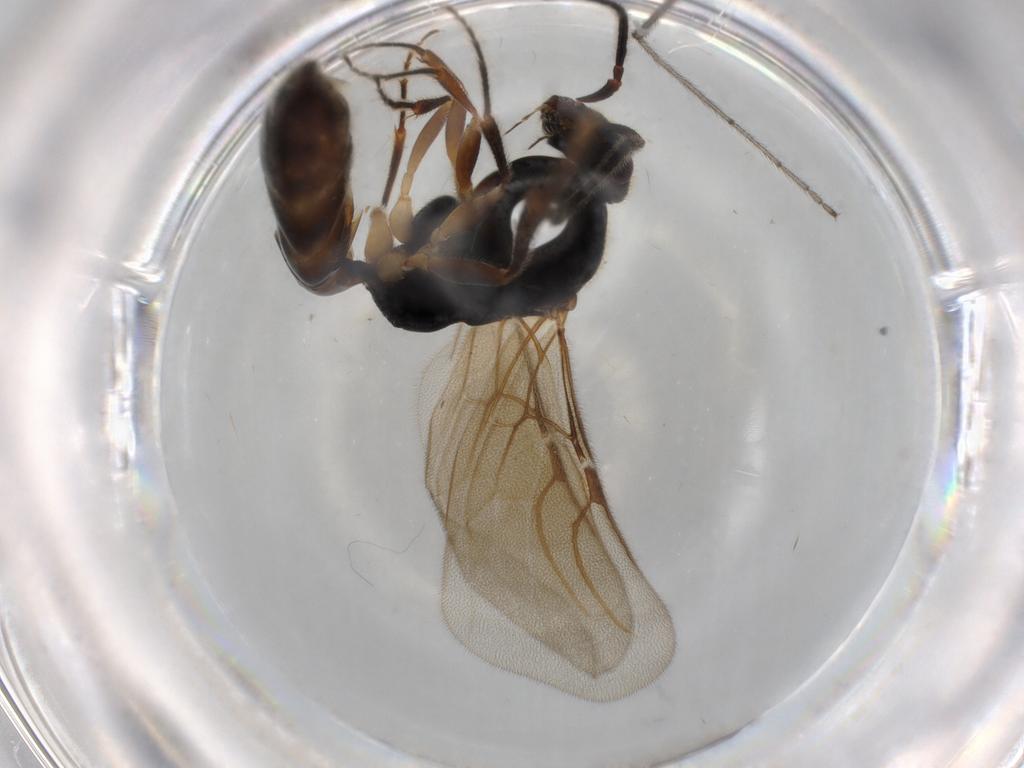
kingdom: Animalia
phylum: Arthropoda
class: Insecta
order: Hymenoptera
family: Bethylidae
